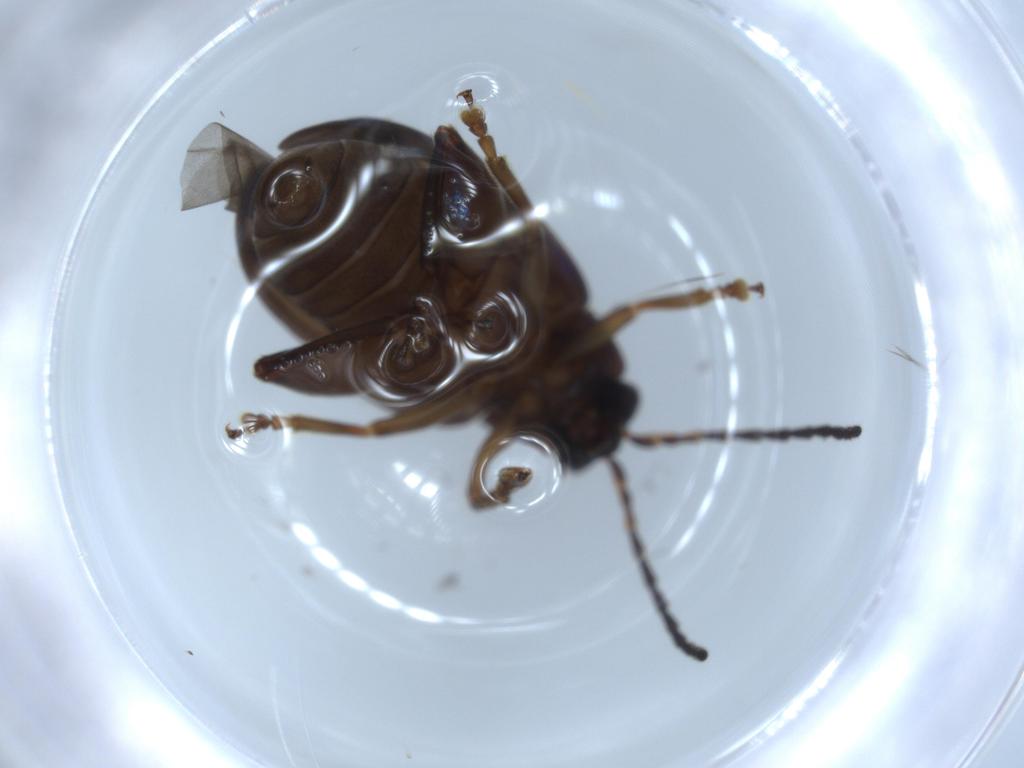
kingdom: Animalia
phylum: Arthropoda
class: Insecta
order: Coleoptera
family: Chrysomelidae
